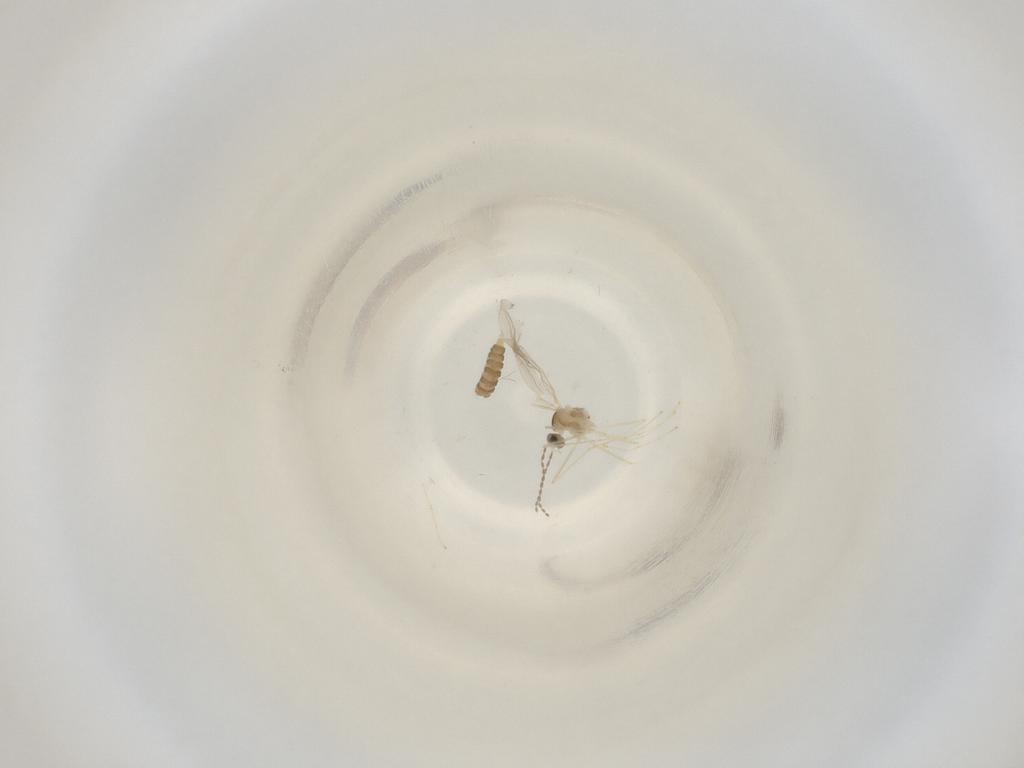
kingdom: Animalia
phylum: Arthropoda
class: Insecta
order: Diptera
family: Cecidomyiidae
